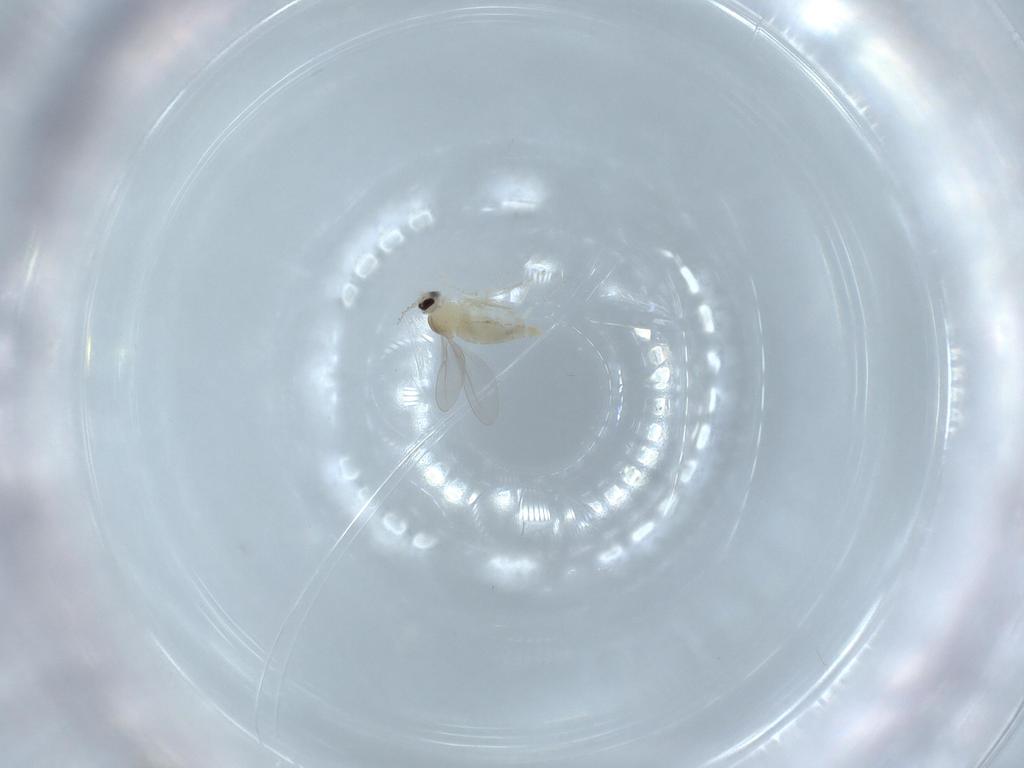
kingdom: Animalia
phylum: Arthropoda
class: Insecta
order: Diptera
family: Cecidomyiidae
